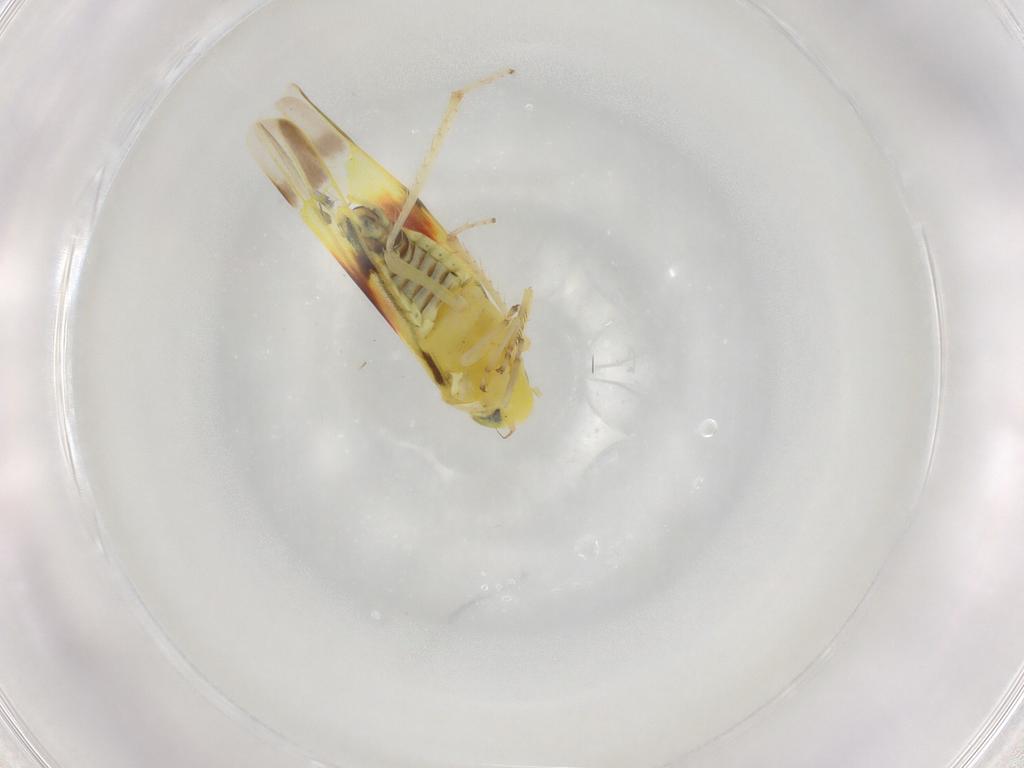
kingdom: Animalia
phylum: Arthropoda
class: Insecta
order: Hemiptera
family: Cicadellidae
